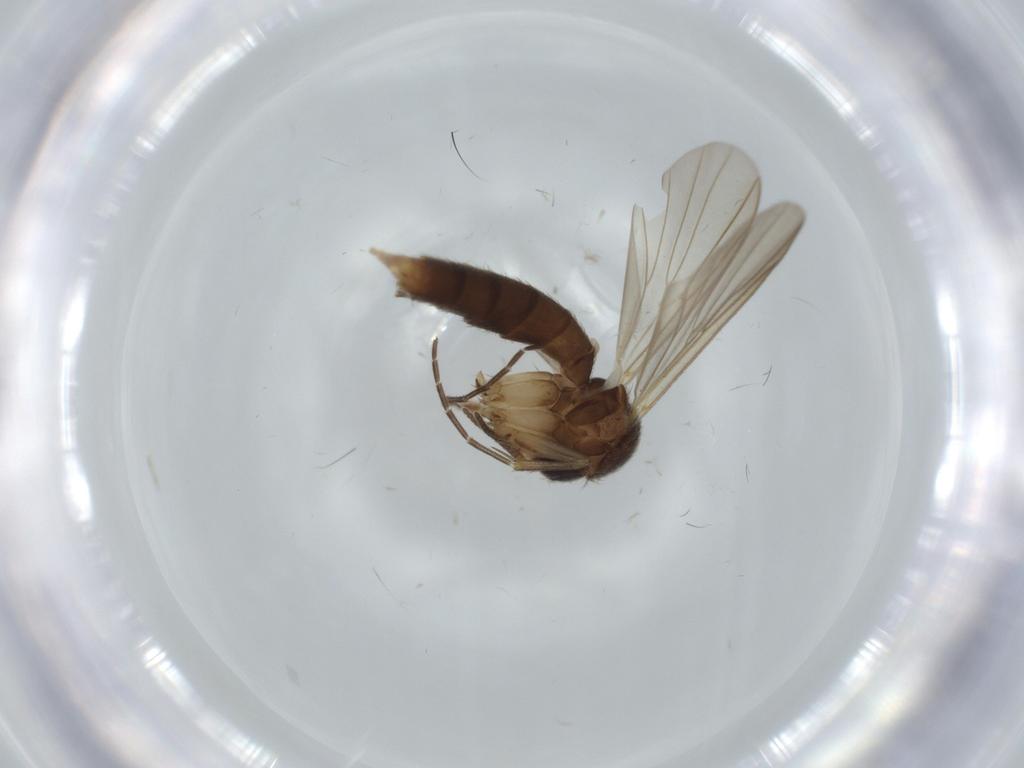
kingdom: Animalia
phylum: Arthropoda
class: Insecta
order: Diptera
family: Mycetophilidae
